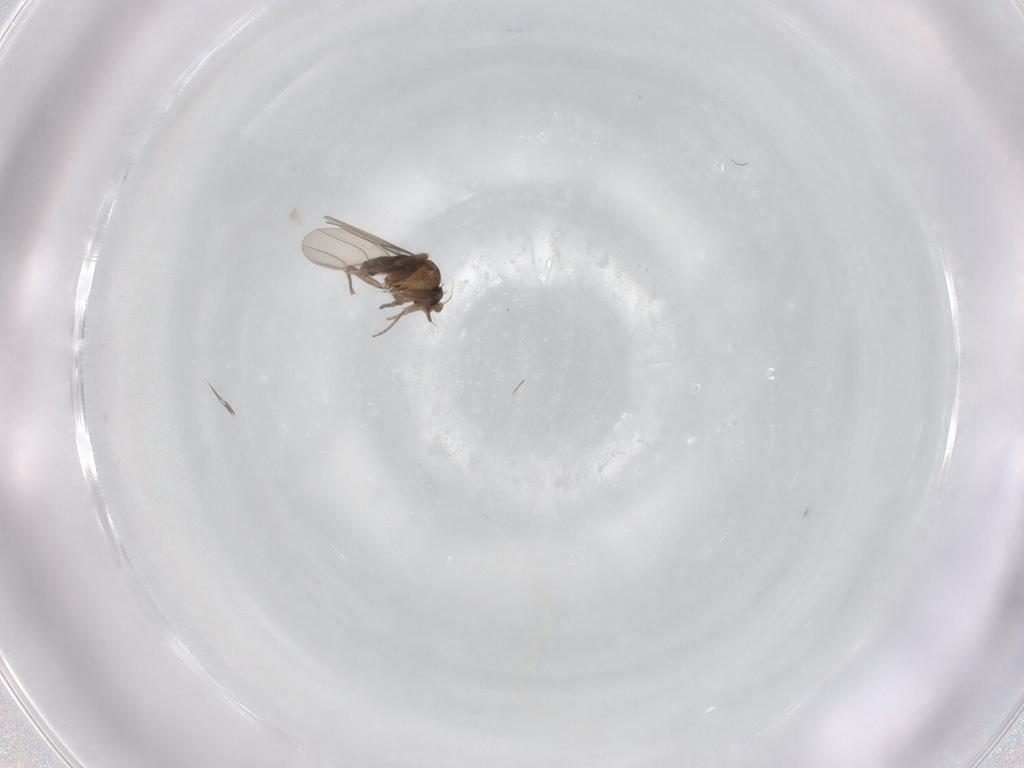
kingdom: Animalia
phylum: Arthropoda
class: Insecta
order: Diptera
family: Phoridae
